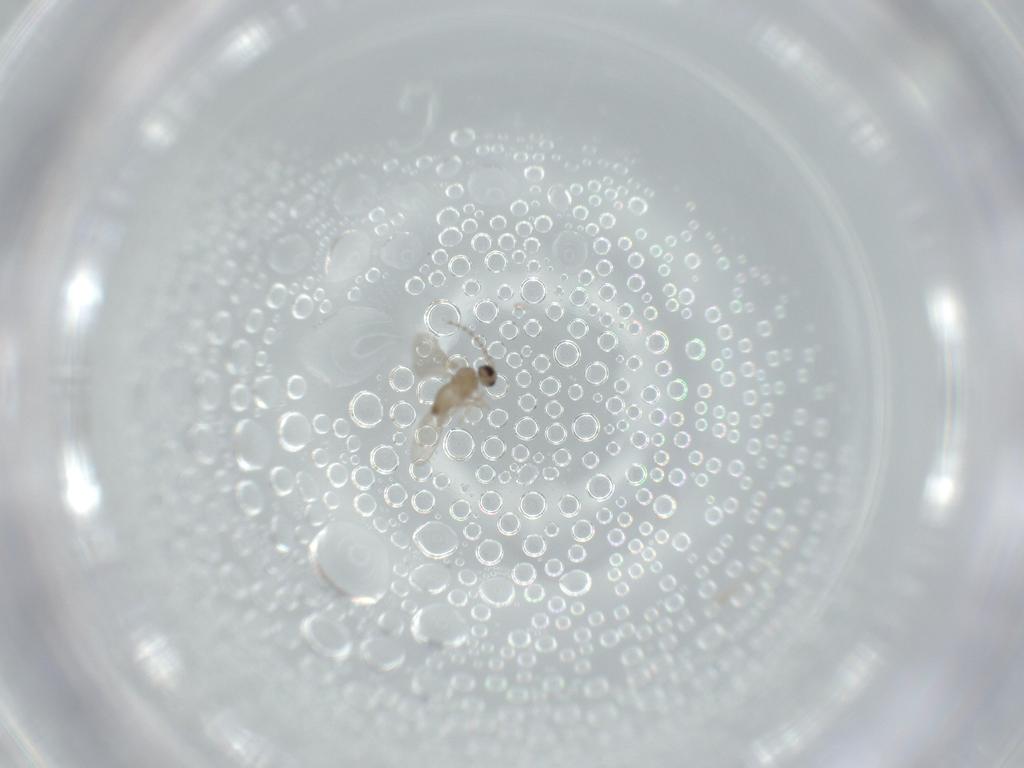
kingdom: Animalia
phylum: Arthropoda
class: Insecta
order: Diptera
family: Cecidomyiidae
